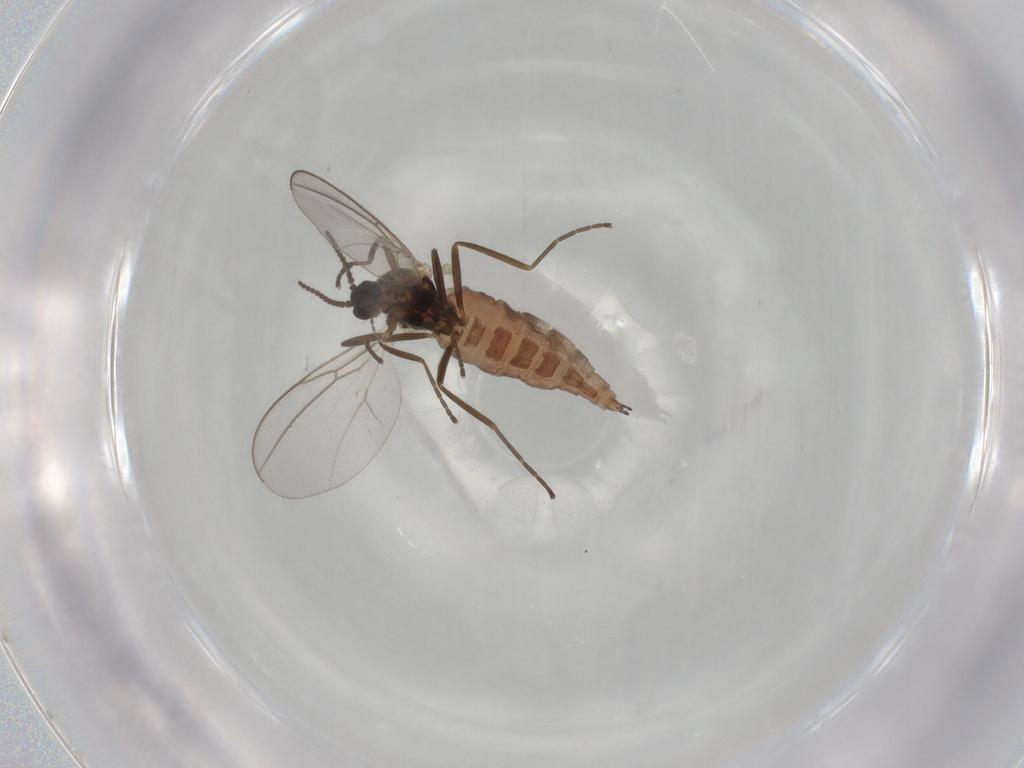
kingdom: Animalia
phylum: Arthropoda
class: Insecta
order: Diptera
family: Cecidomyiidae
